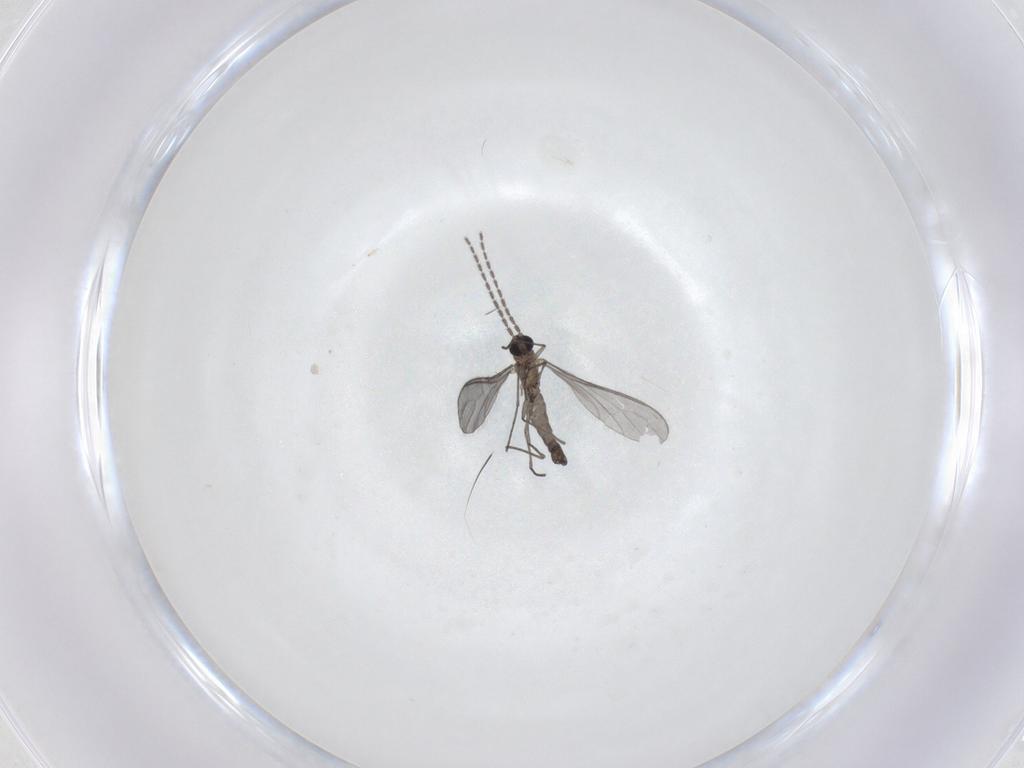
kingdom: Animalia
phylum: Arthropoda
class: Insecta
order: Diptera
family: Sciaridae
